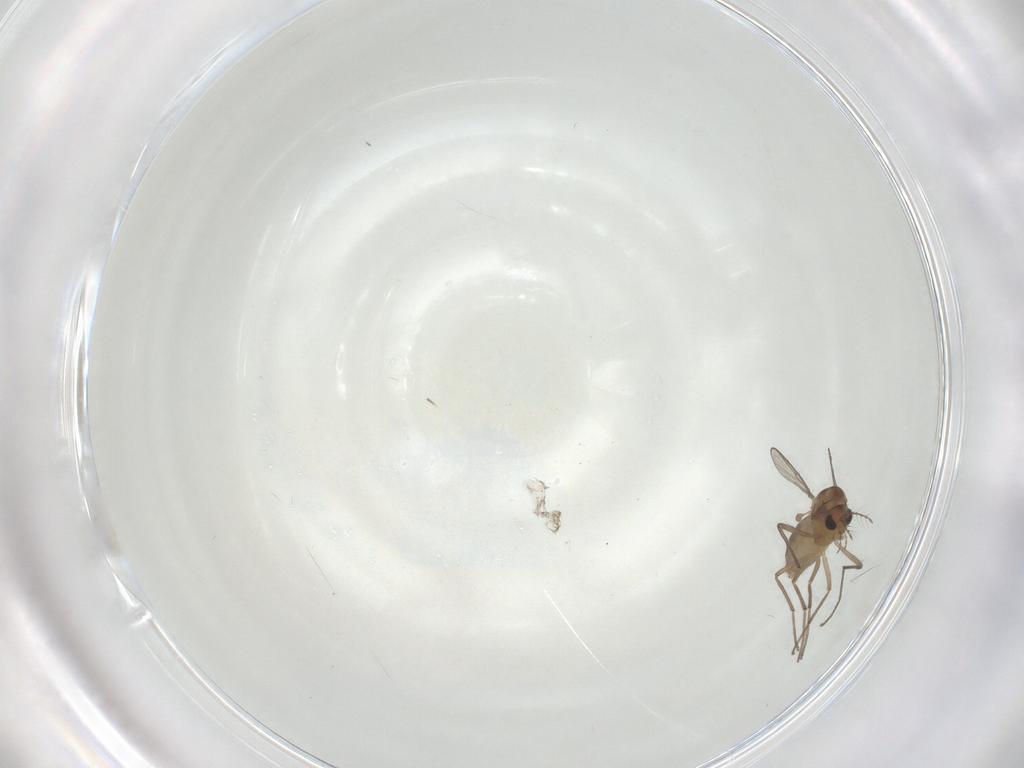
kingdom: Animalia
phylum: Arthropoda
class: Insecta
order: Diptera
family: Chironomidae
